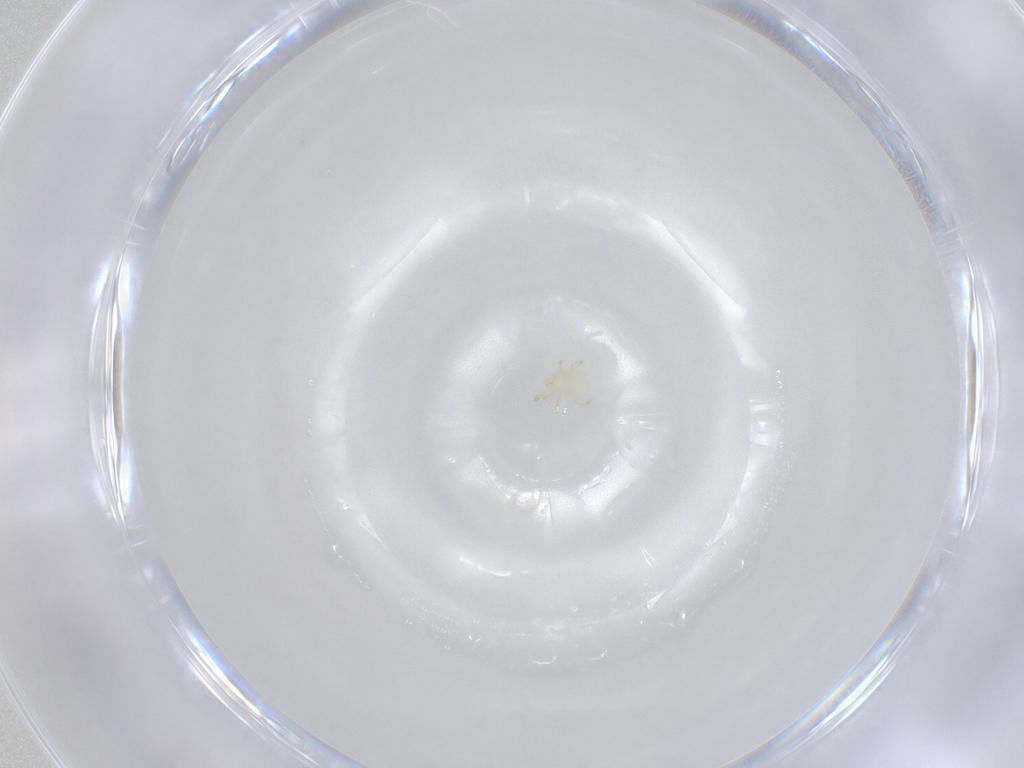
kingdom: Animalia
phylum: Arthropoda
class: Arachnida
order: Mesostigmata
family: Phytoseiidae
